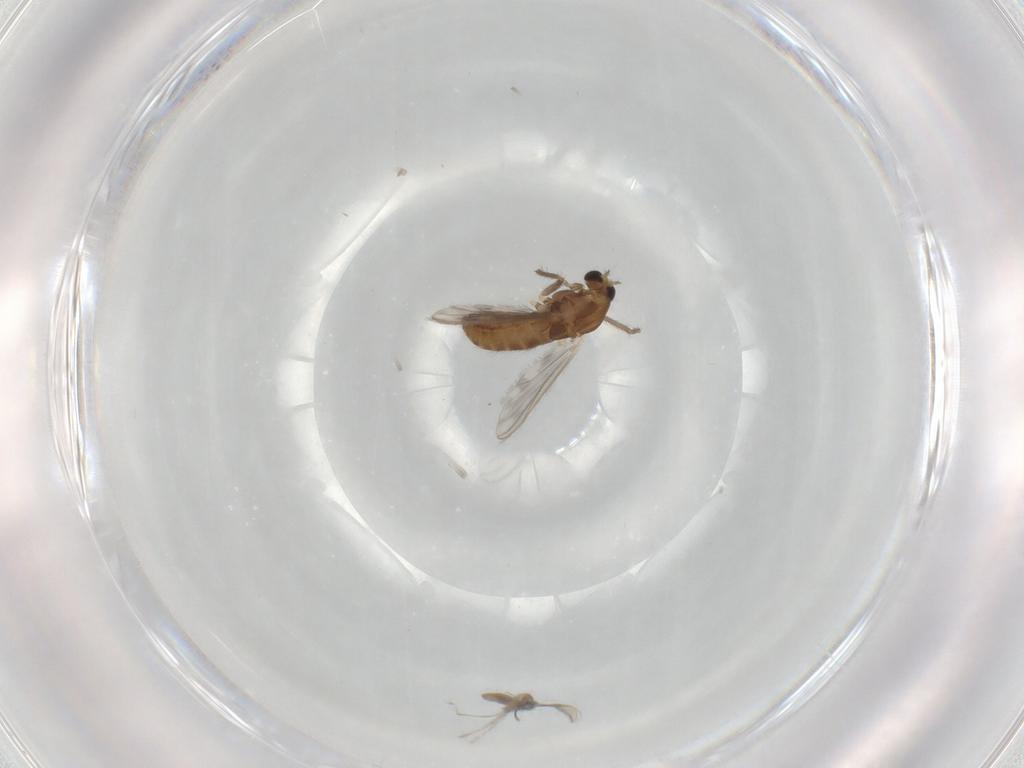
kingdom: Animalia
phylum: Arthropoda
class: Insecta
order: Diptera
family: Chironomidae
